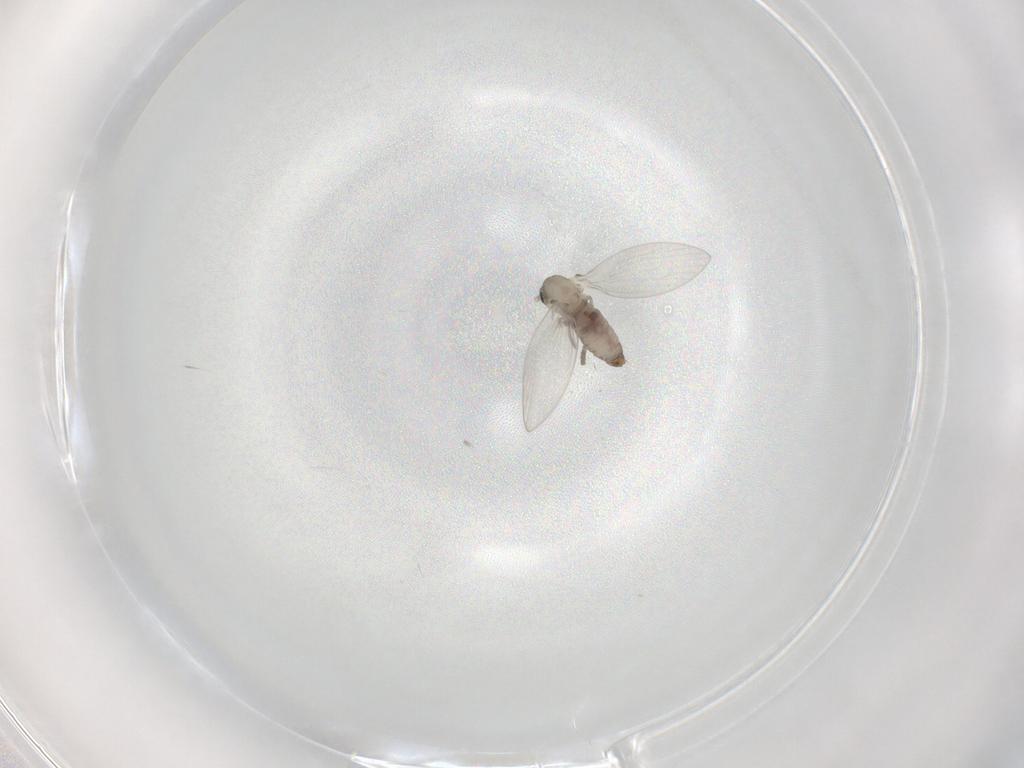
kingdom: Animalia
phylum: Arthropoda
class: Insecta
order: Diptera
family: Psychodidae
